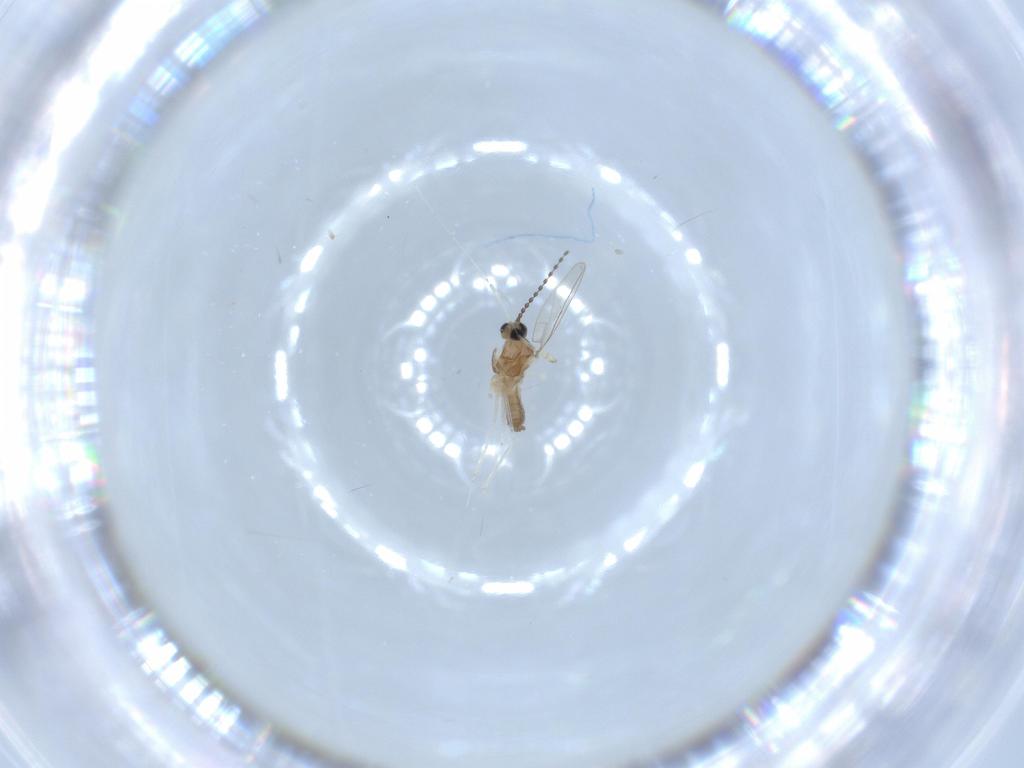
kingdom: Animalia
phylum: Arthropoda
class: Insecta
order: Diptera
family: Cecidomyiidae
